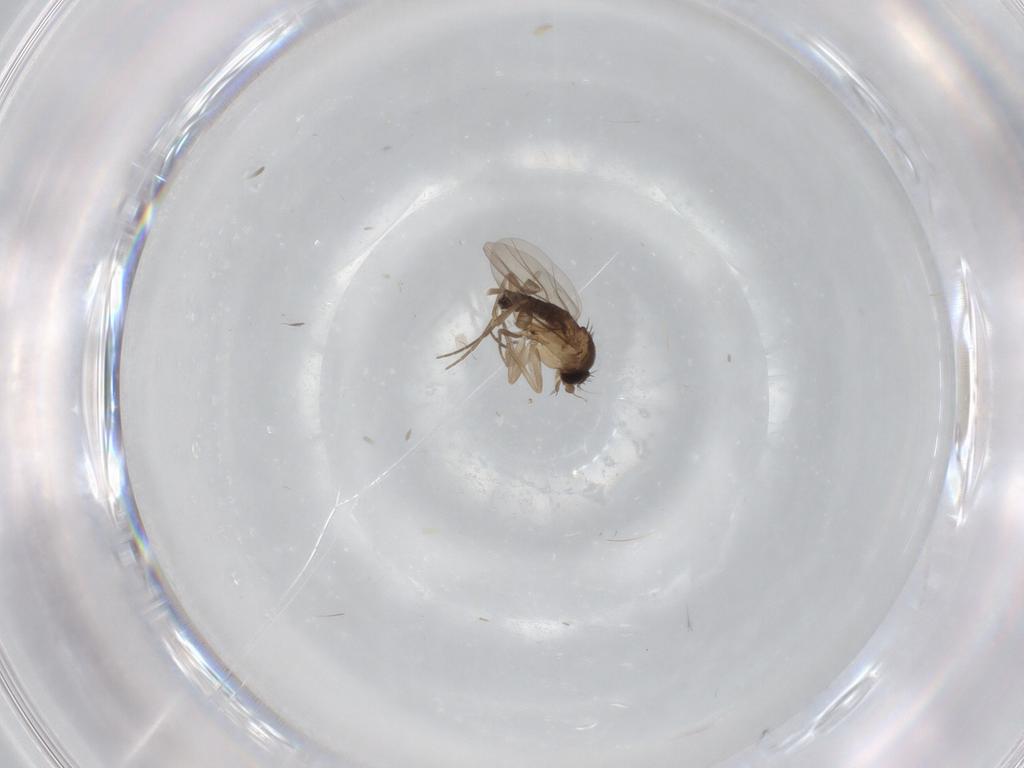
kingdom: Animalia
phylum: Arthropoda
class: Insecta
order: Diptera
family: Phoridae
